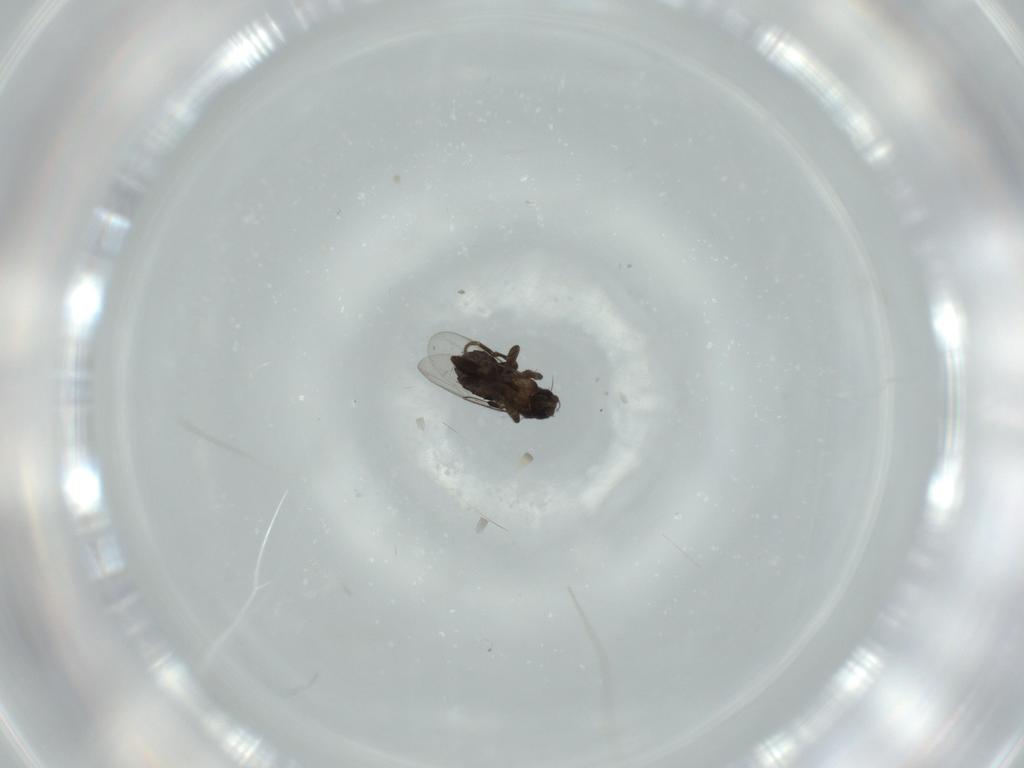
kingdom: Animalia
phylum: Arthropoda
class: Insecta
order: Diptera
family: Phoridae
